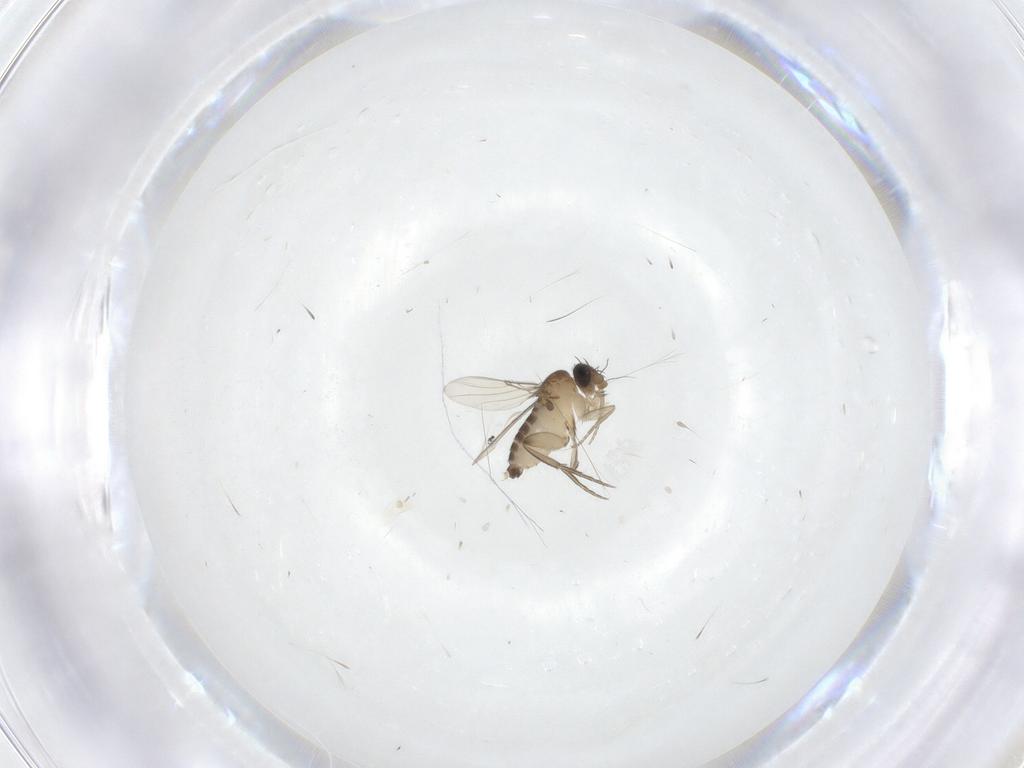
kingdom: Animalia
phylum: Arthropoda
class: Insecta
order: Diptera
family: Phoridae
